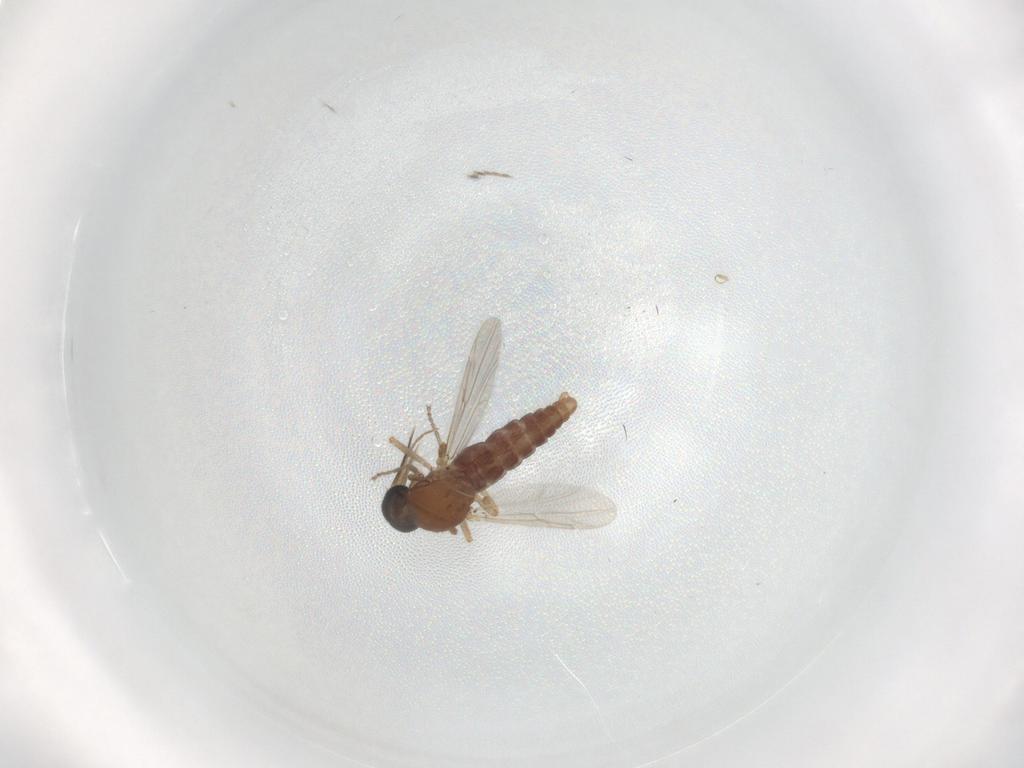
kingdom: Animalia
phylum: Arthropoda
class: Insecta
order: Diptera
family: Ceratopogonidae
